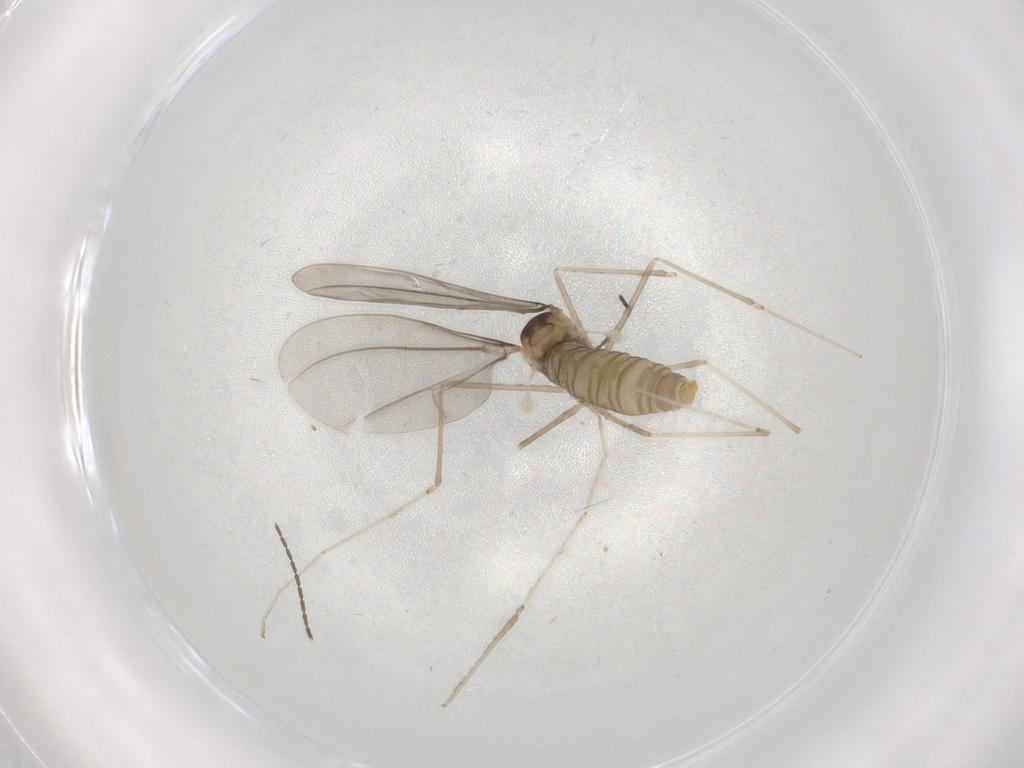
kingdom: Animalia
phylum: Arthropoda
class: Insecta
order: Diptera
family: Cecidomyiidae
